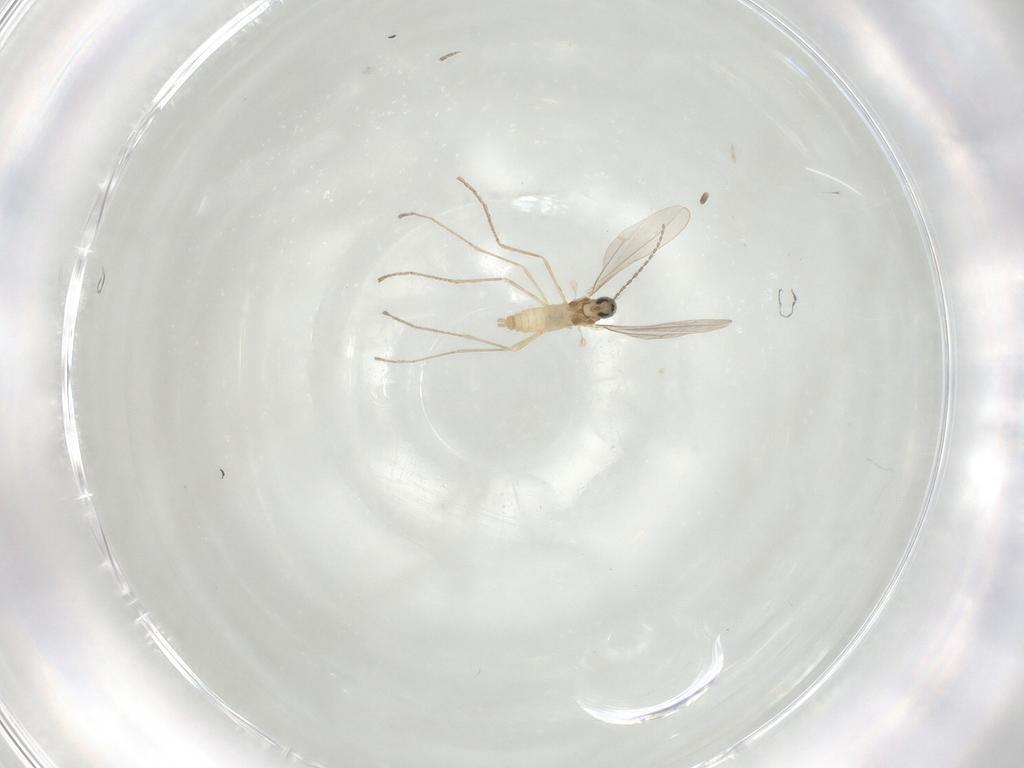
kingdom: Animalia
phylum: Arthropoda
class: Insecta
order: Diptera
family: Cecidomyiidae
